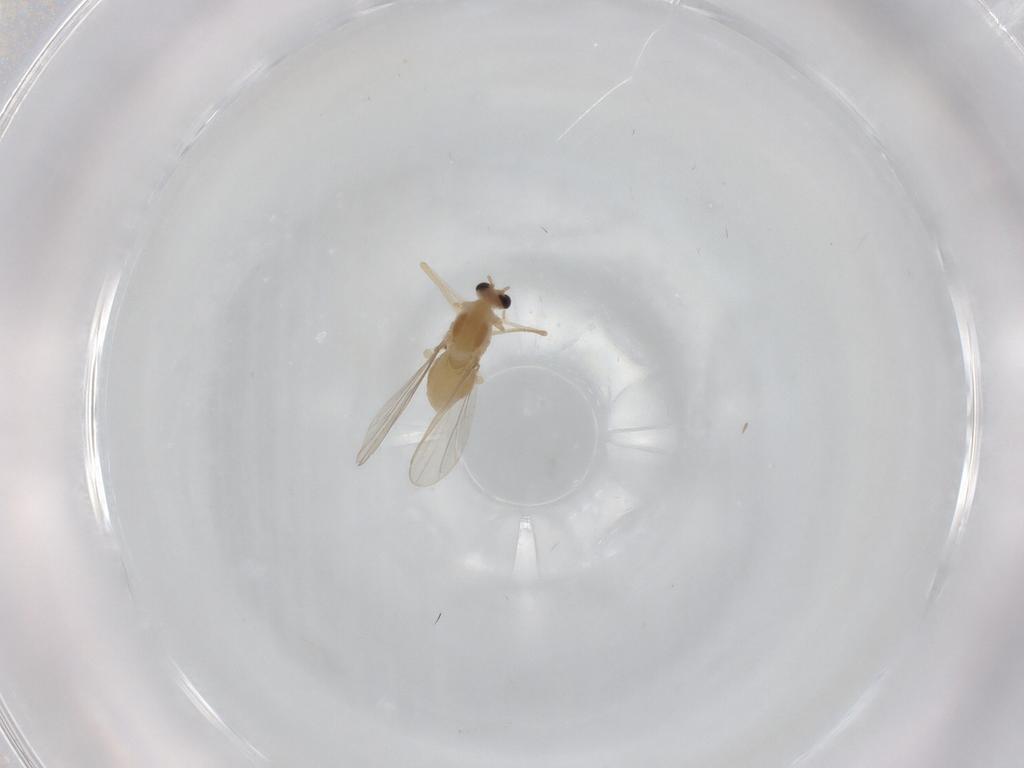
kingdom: Animalia
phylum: Arthropoda
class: Insecta
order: Diptera
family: Chironomidae
